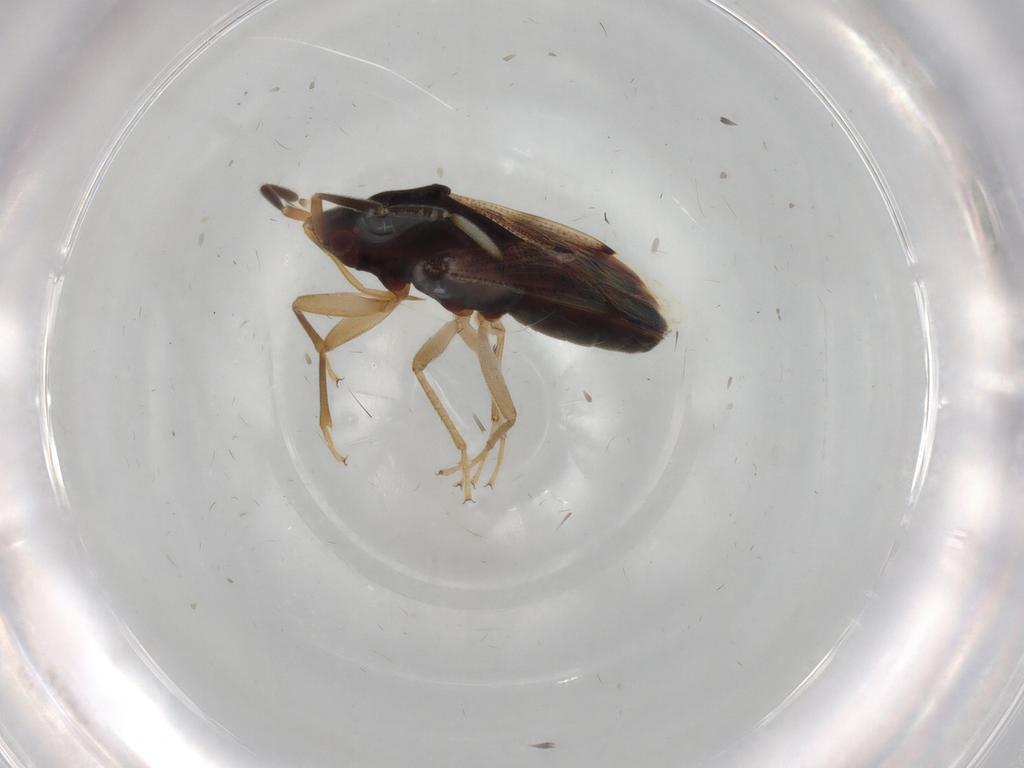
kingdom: Animalia
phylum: Arthropoda
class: Insecta
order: Hemiptera
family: Rhyparochromidae
